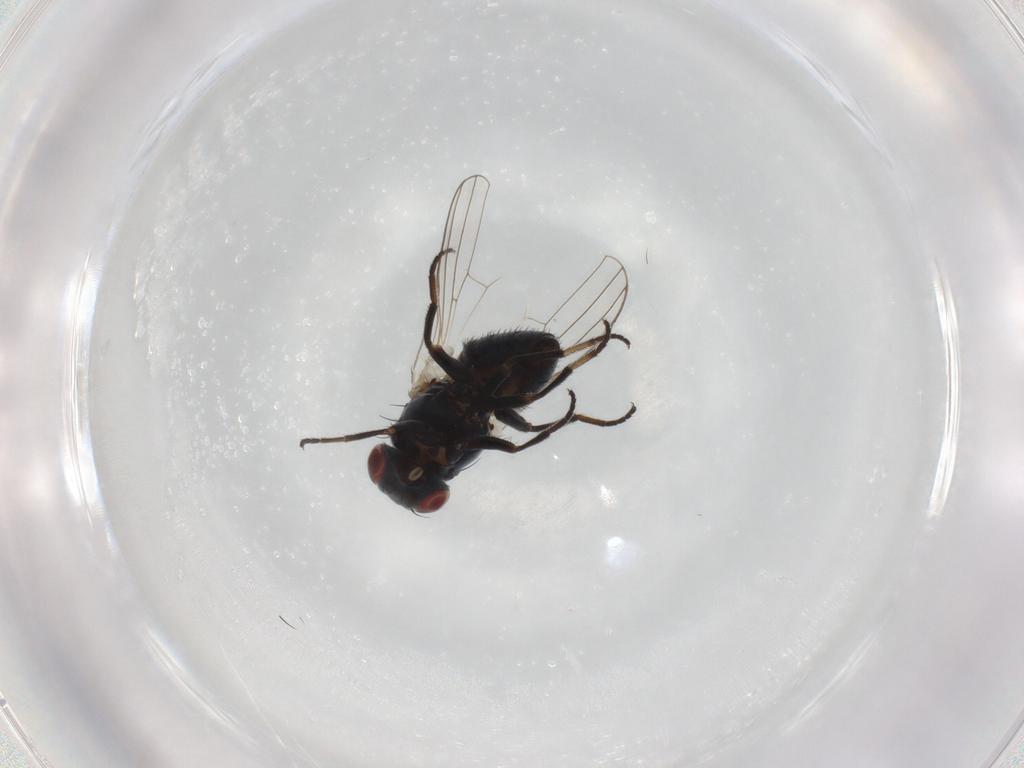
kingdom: Animalia
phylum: Arthropoda
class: Insecta
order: Diptera
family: Chamaemyiidae
